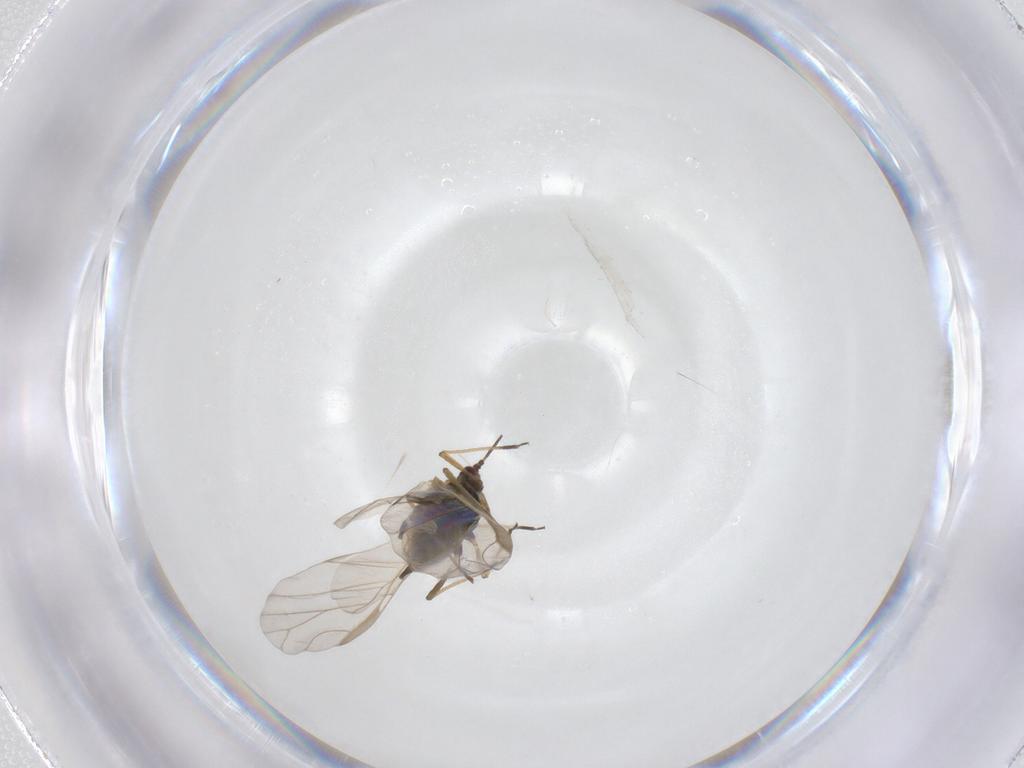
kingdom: Animalia
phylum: Arthropoda
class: Insecta
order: Hemiptera
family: Aphididae
